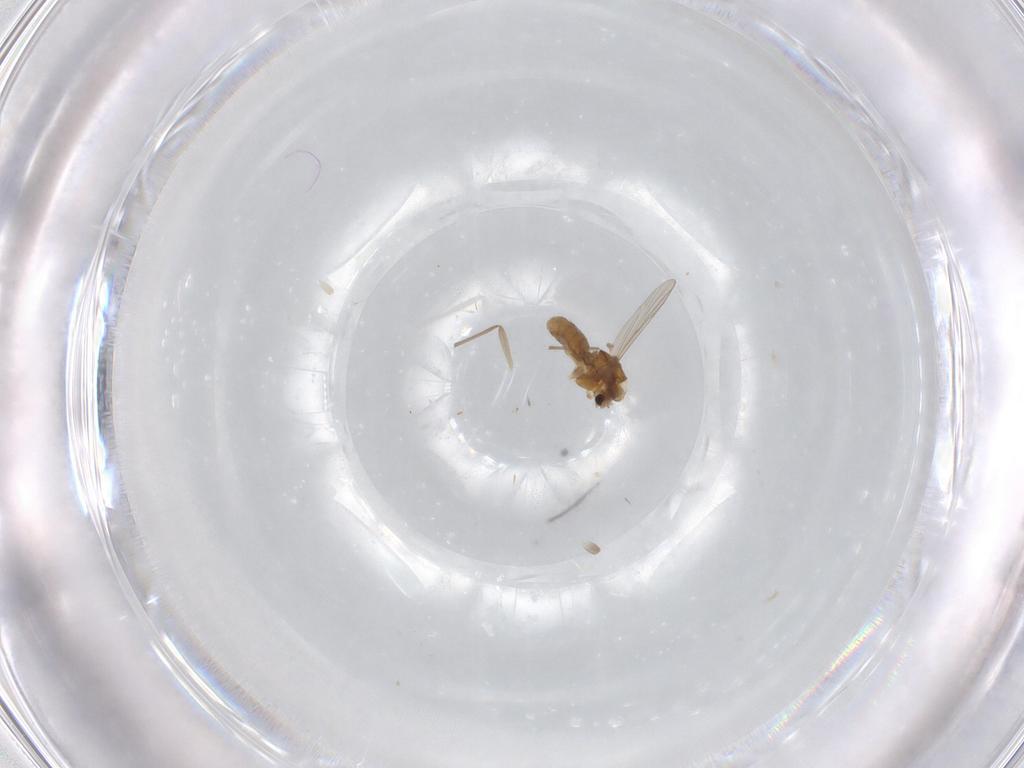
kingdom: Animalia
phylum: Arthropoda
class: Insecta
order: Diptera
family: Chironomidae
